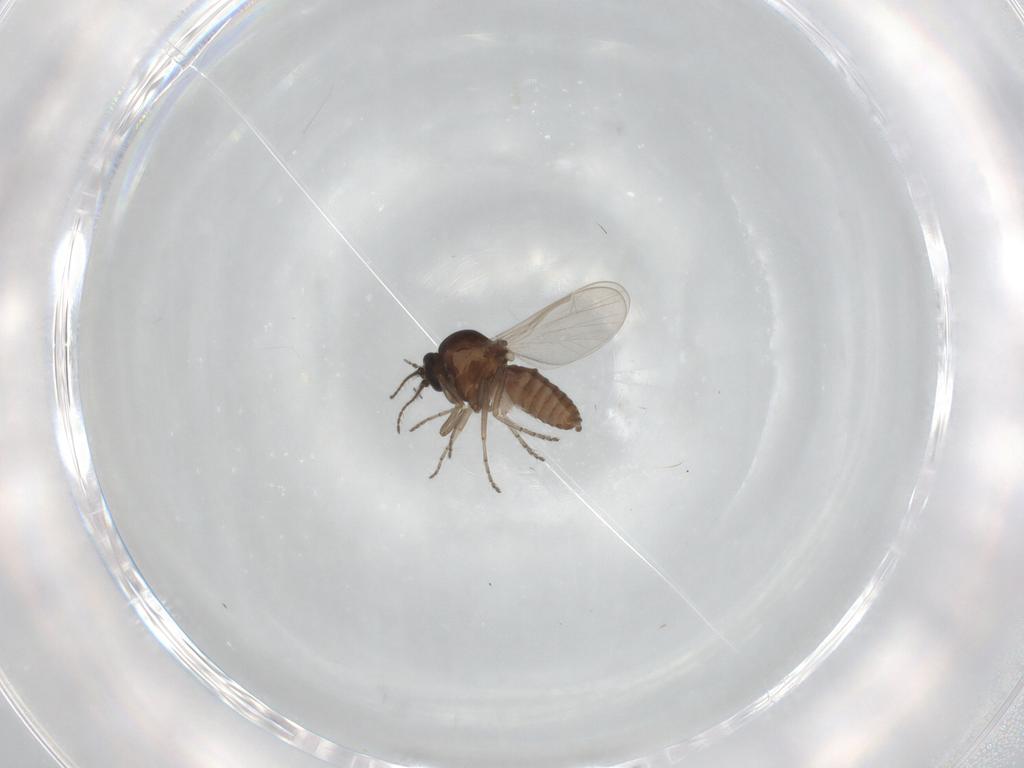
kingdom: Animalia
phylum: Arthropoda
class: Insecta
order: Diptera
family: Ceratopogonidae
